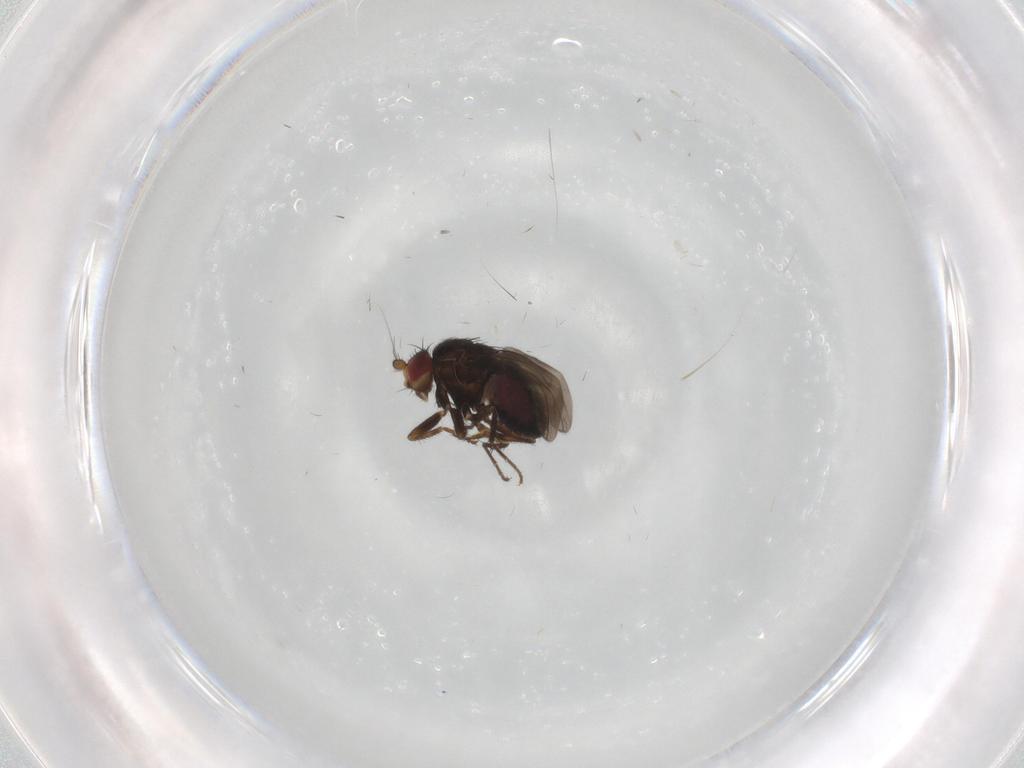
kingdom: Animalia
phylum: Arthropoda
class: Insecta
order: Diptera
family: Sphaeroceridae
